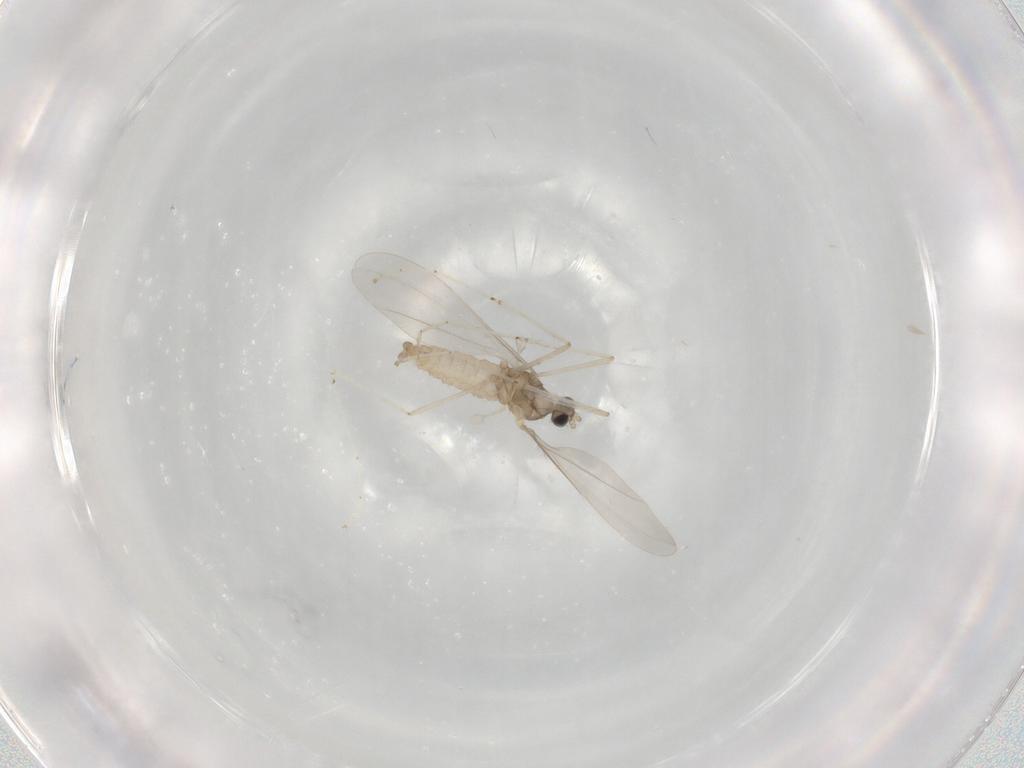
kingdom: Animalia
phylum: Arthropoda
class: Insecta
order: Diptera
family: Cecidomyiidae
